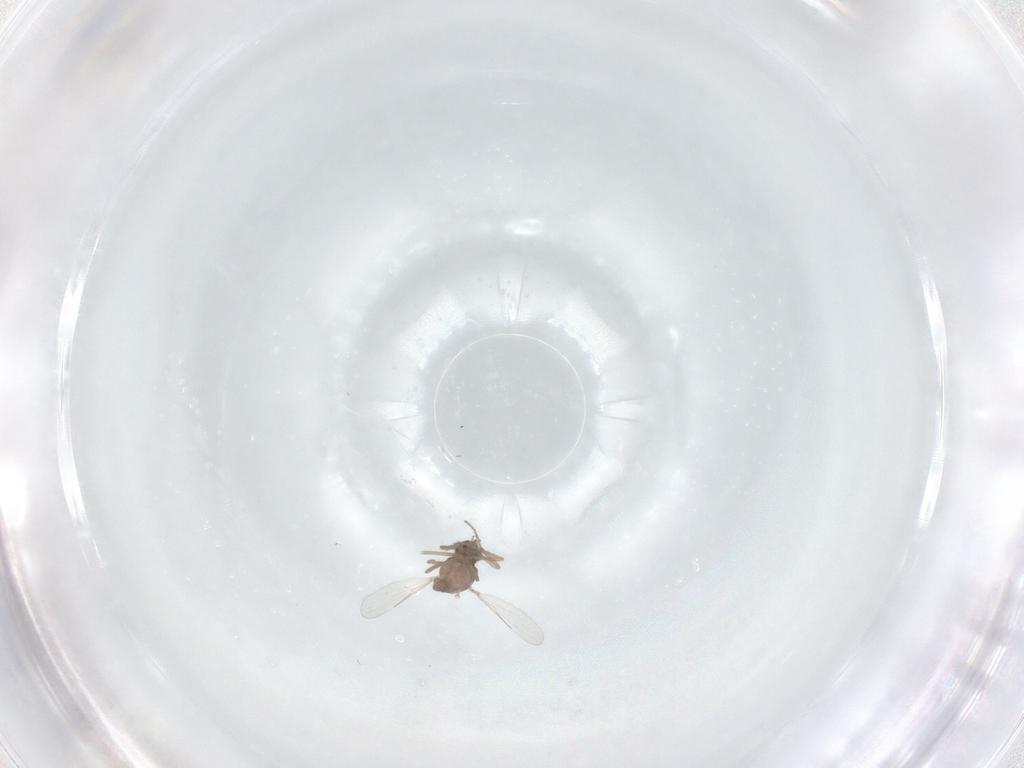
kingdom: Animalia
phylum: Arthropoda
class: Insecta
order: Diptera
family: Ceratopogonidae
